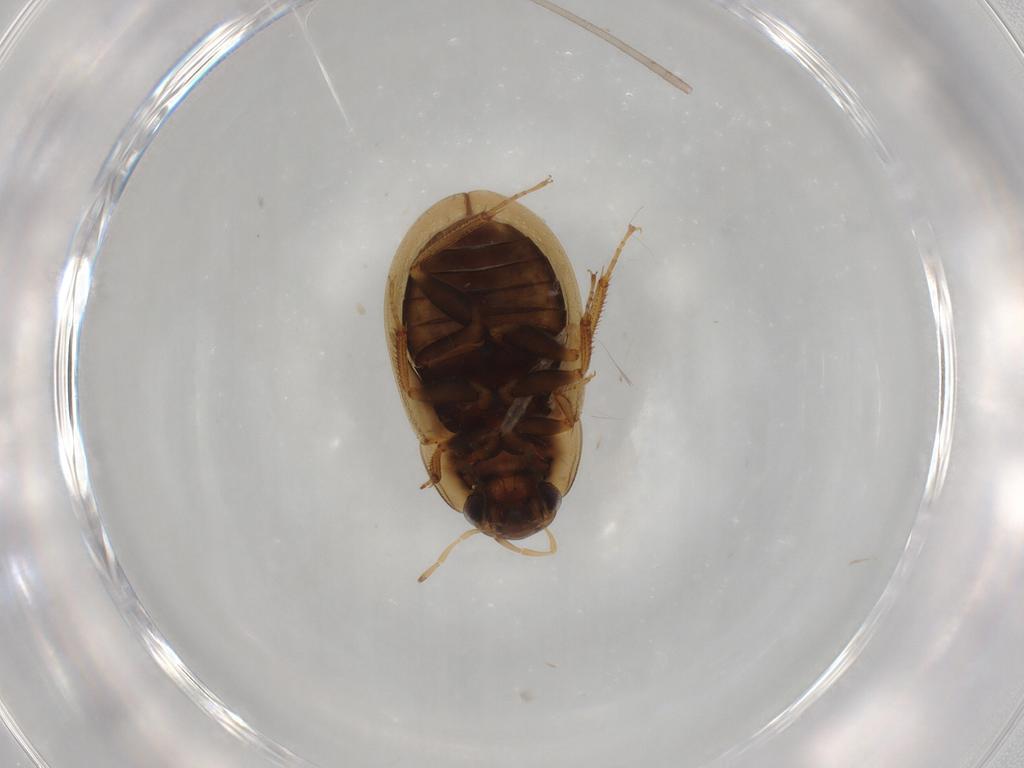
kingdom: Animalia
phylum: Arthropoda
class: Insecta
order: Coleoptera
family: Hydrophilidae
